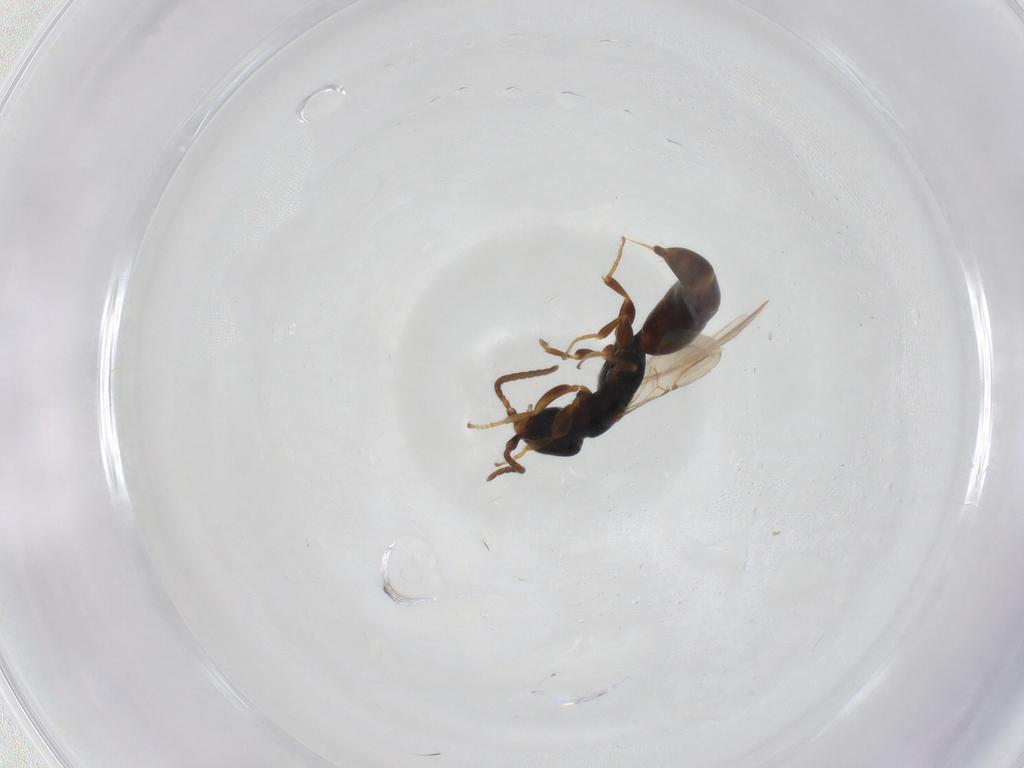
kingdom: Animalia
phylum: Arthropoda
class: Insecta
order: Hymenoptera
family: Bethylidae
